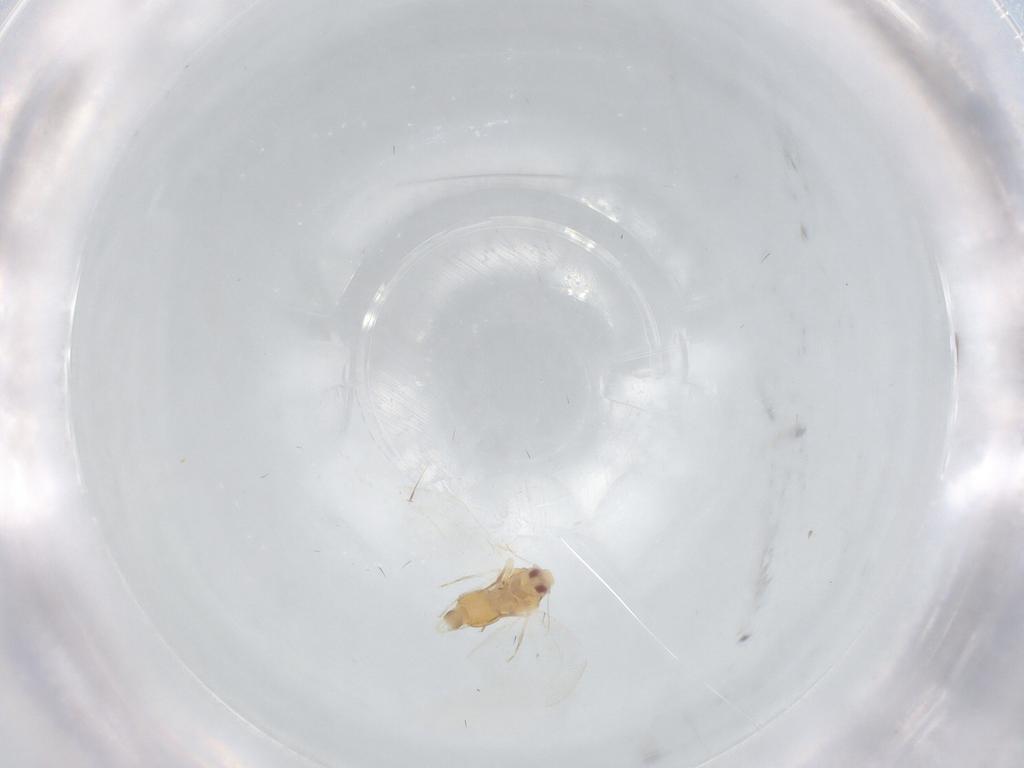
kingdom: Animalia
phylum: Arthropoda
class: Insecta
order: Hemiptera
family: Aleyrodidae
